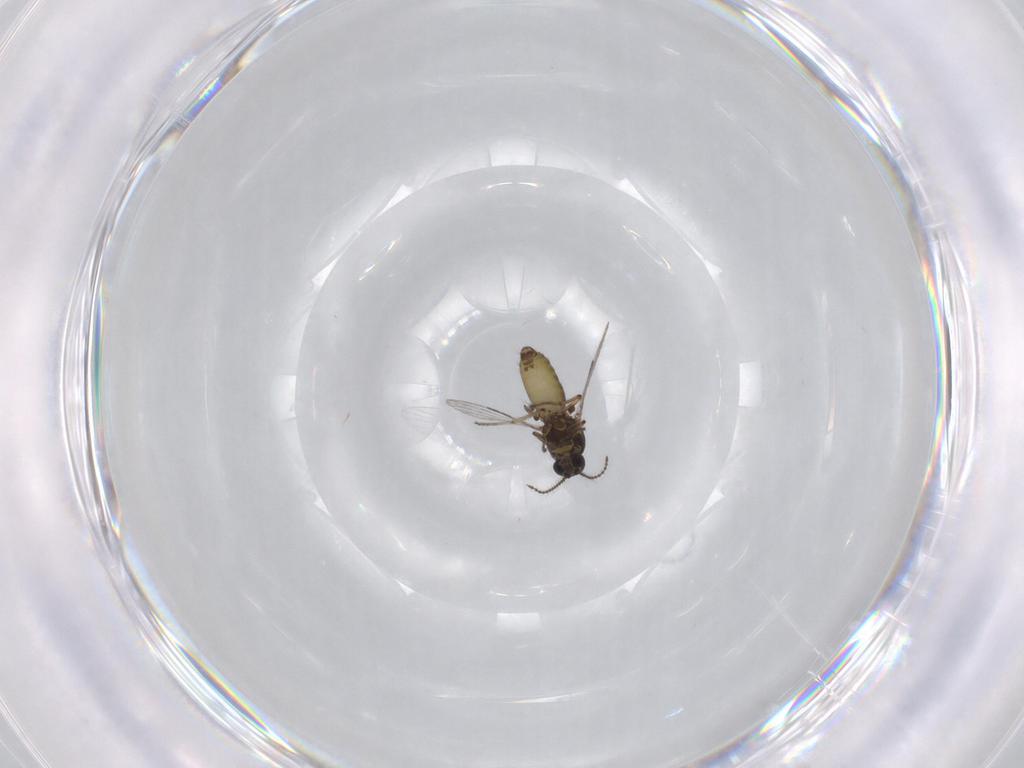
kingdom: Animalia
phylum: Arthropoda
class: Insecta
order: Diptera
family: Ceratopogonidae
